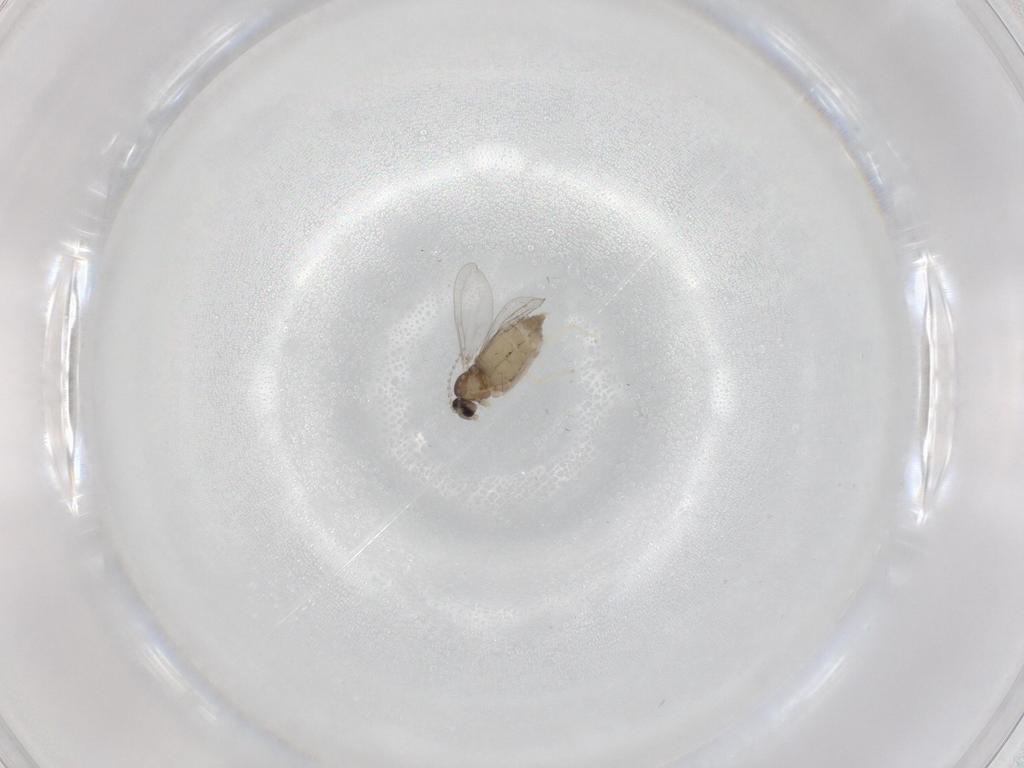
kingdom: Animalia
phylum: Arthropoda
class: Insecta
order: Diptera
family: Cecidomyiidae
